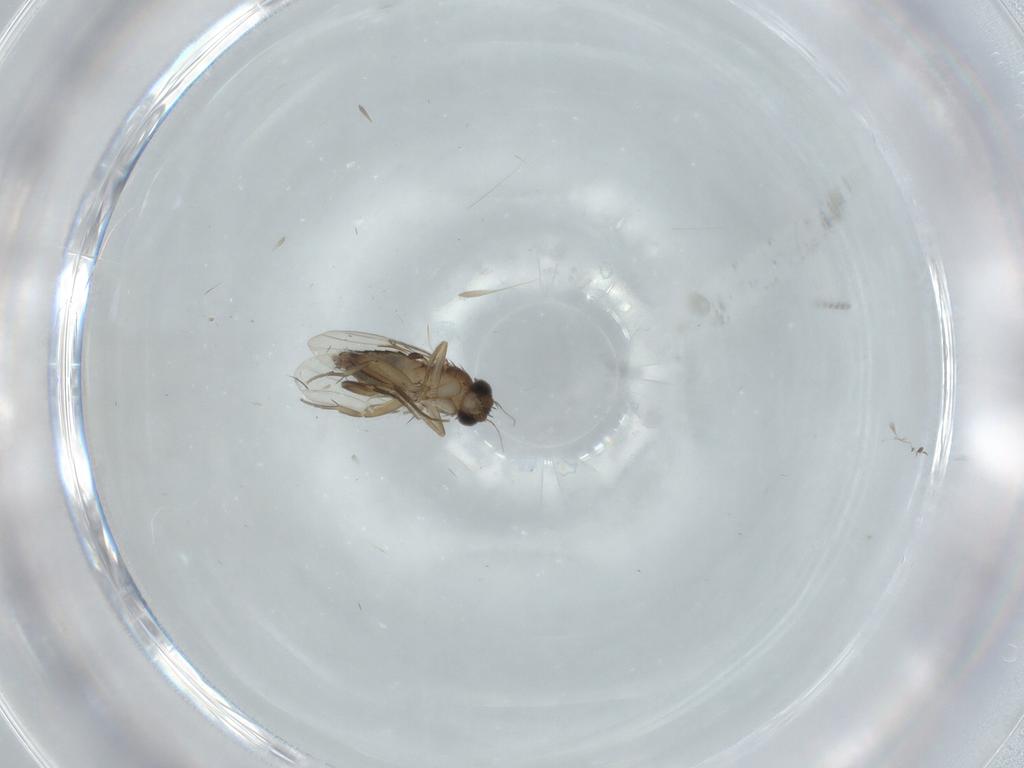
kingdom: Animalia
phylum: Arthropoda
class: Insecta
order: Diptera
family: Phoridae
